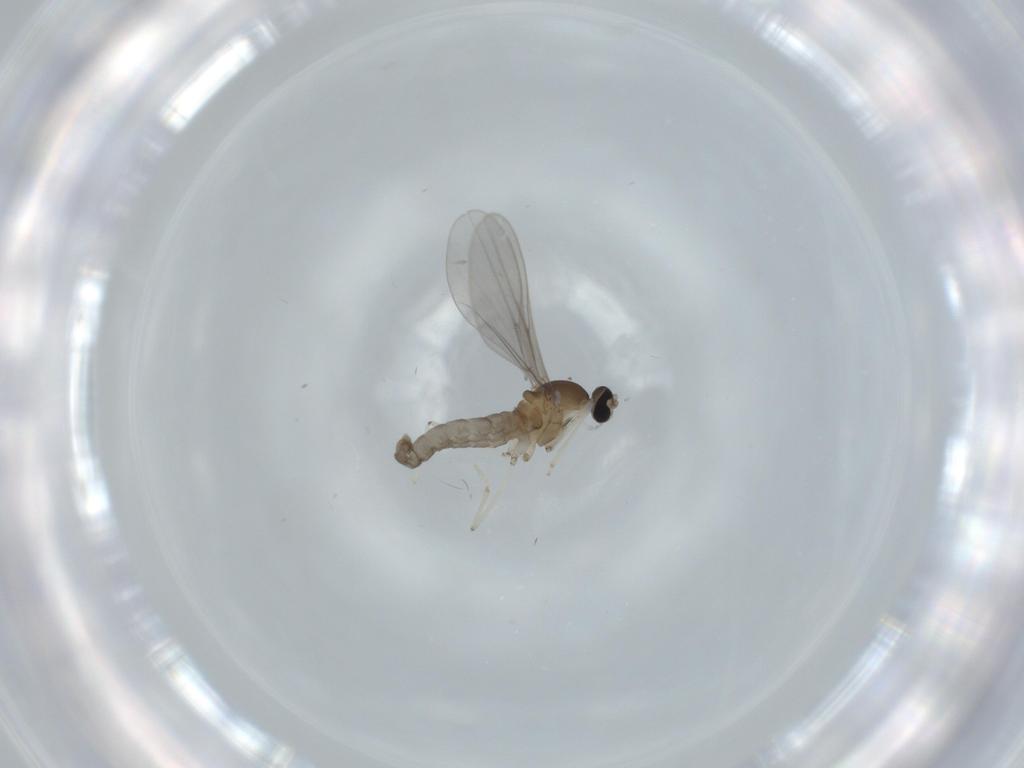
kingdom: Animalia
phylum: Arthropoda
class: Insecta
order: Diptera
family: Cecidomyiidae
